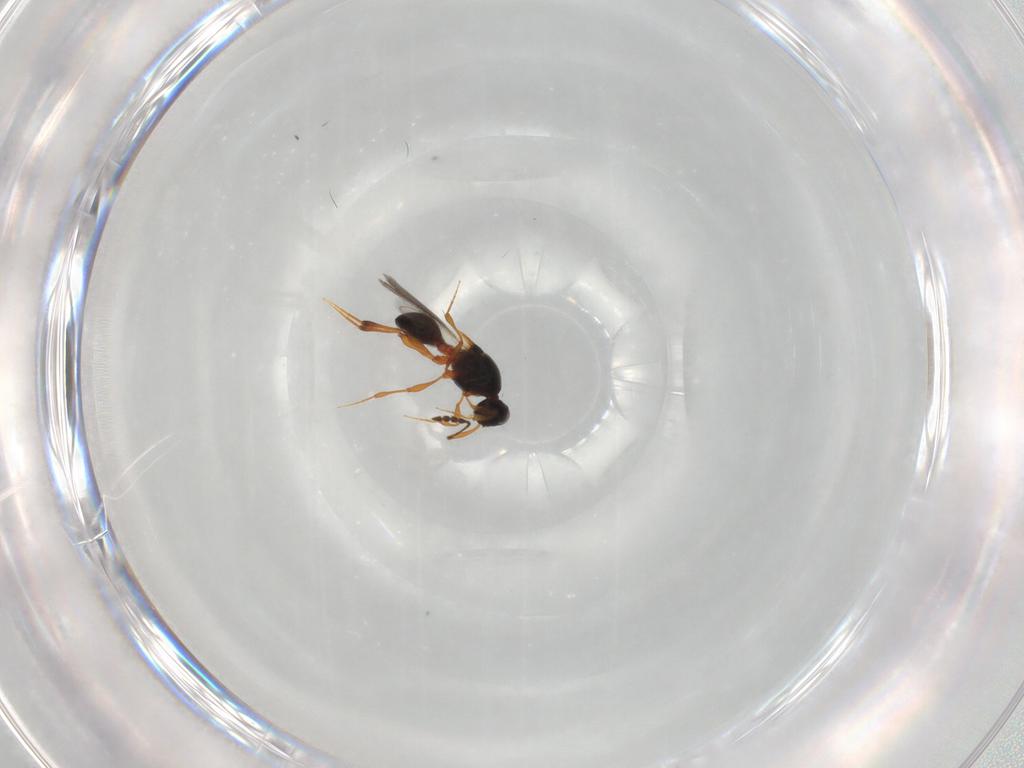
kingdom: Animalia
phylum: Arthropoda
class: Insecta
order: Hymenoptera
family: Platygastridae
